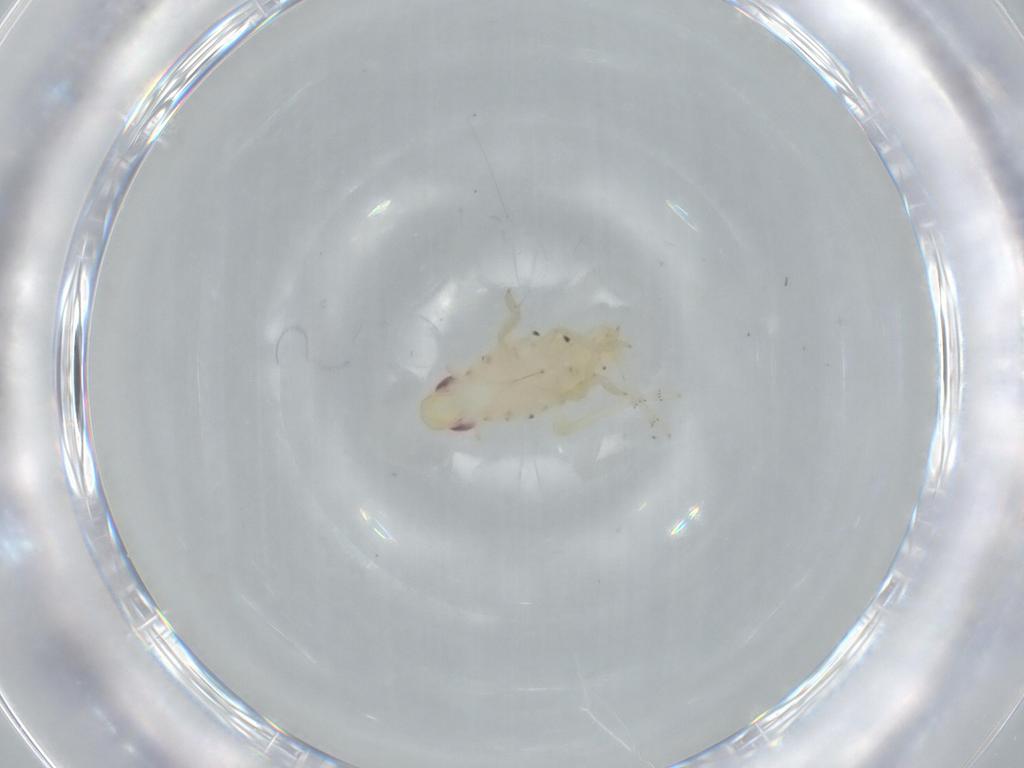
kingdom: Animalia
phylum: Arthropoda
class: Insecta
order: Hemiptera
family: Tropiduchidae
